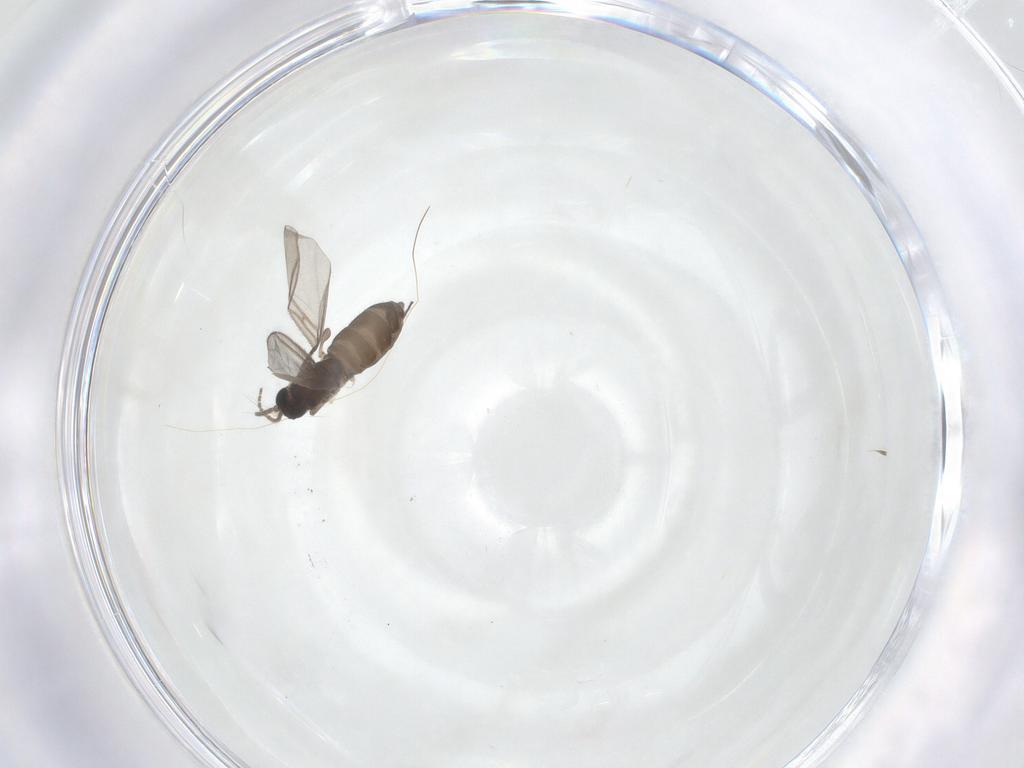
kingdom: Animalia
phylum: Arthropoda
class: Insecta
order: Diptera
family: Sciaridae
